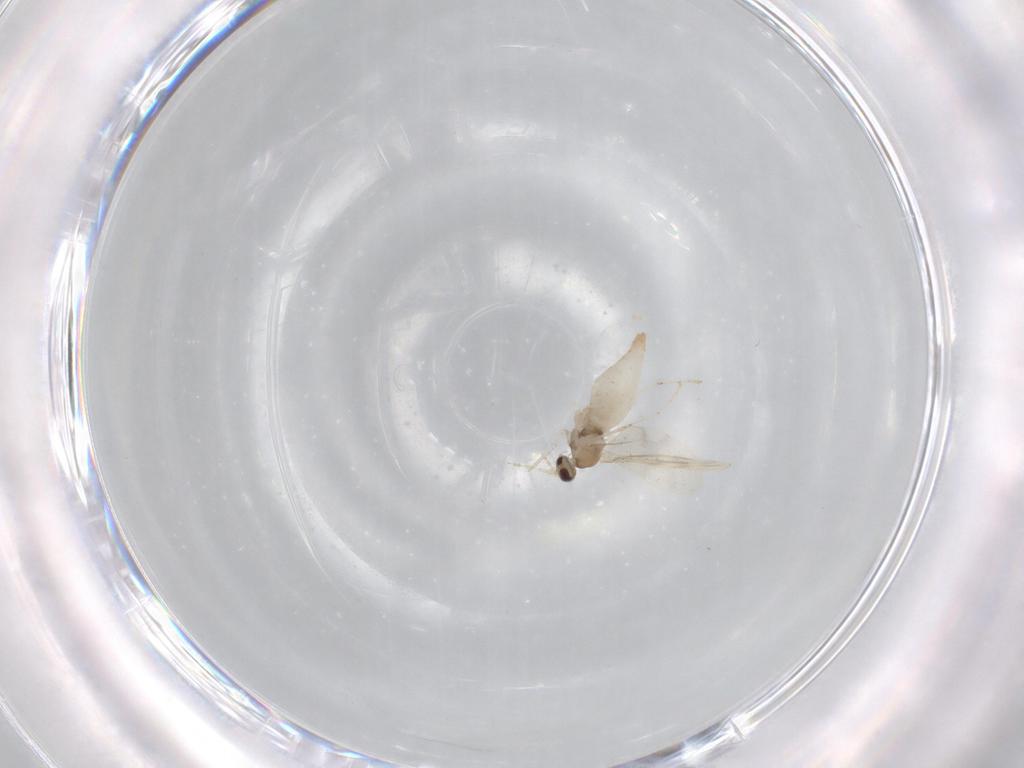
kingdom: Animalia
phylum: Arthropoda
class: Insecta
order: Diptera
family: Cecidomyiidae
